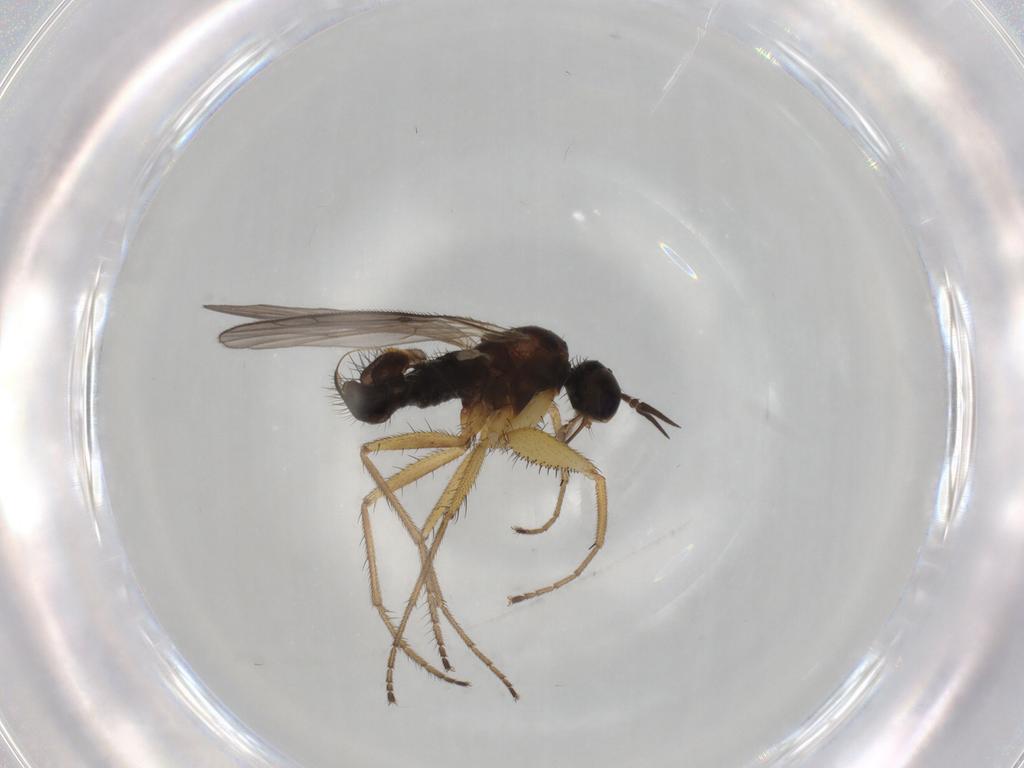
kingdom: Animalia
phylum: Arthropoda
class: Insecta
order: Diptera
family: Empididae
